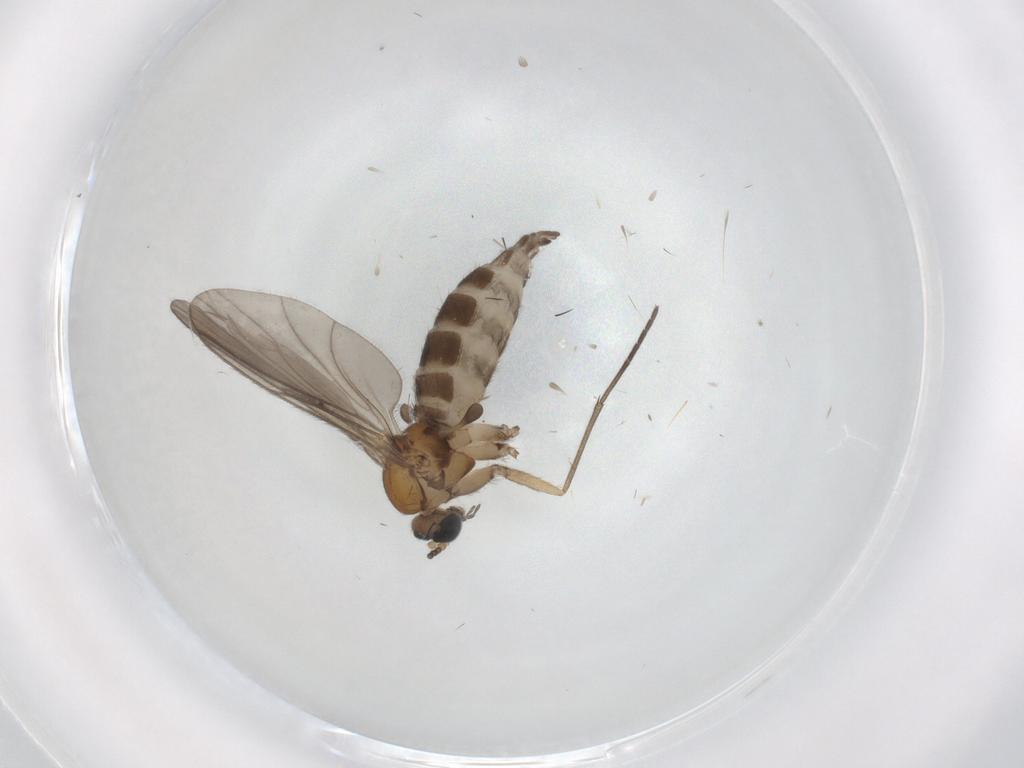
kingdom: Animalia
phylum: Arthropoda
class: Insecta
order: Diptera
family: Sciaridae
